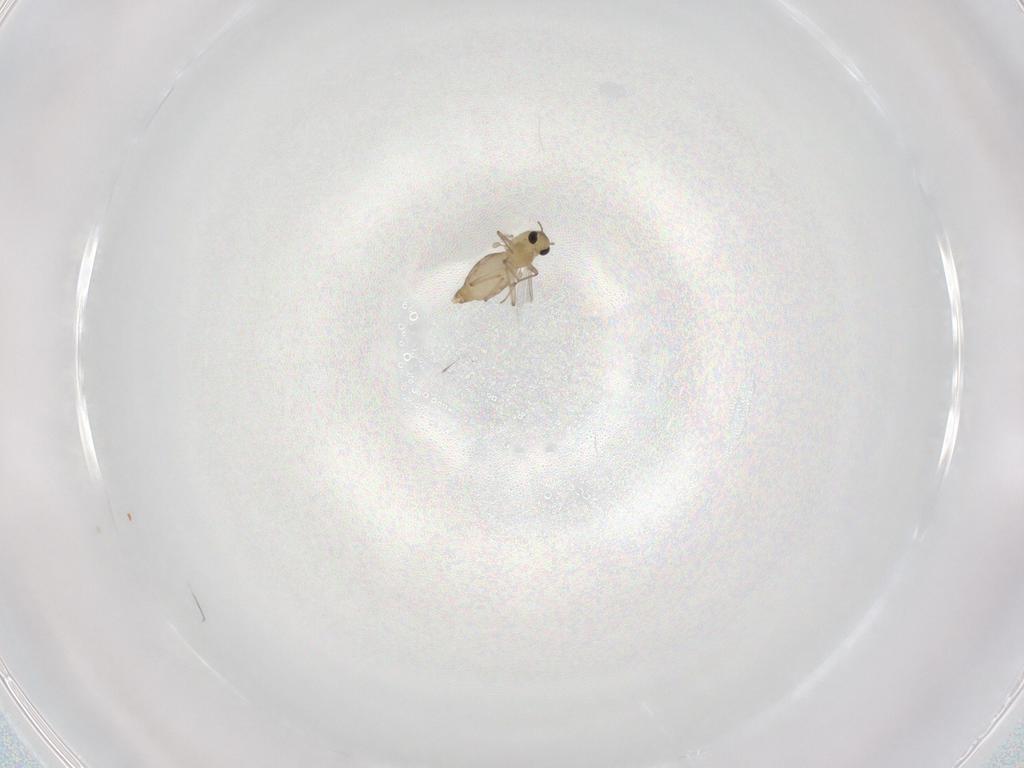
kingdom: Animalia
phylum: Arthropoda
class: Insecta
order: Diptera
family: Chironomidae
